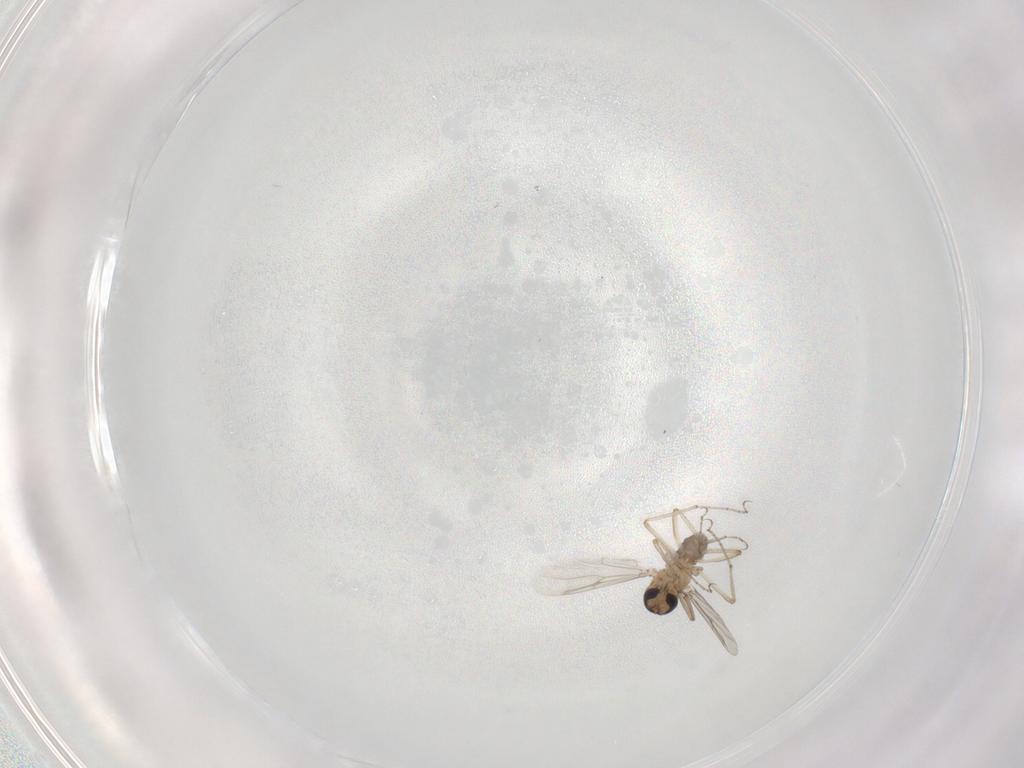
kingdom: Animalia
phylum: Arthropoda
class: Insecta
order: Diptera
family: Ceratopogonidae
